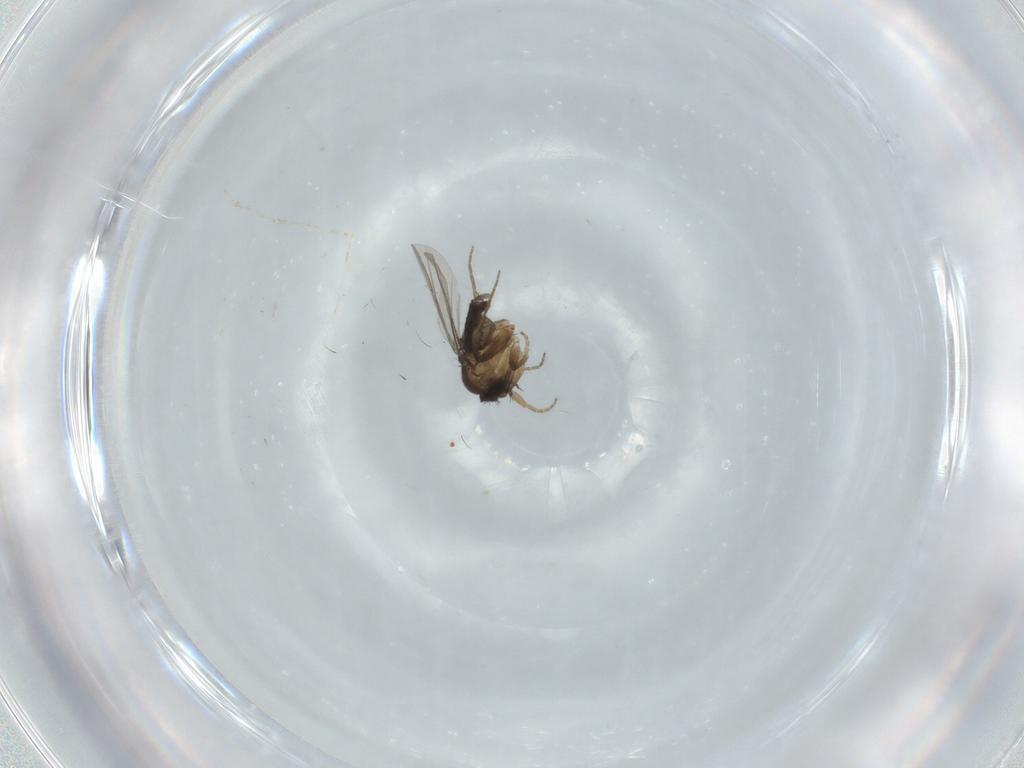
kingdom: Animalia
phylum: Arthropoda
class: Insecta
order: Diptera
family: Phoridae
